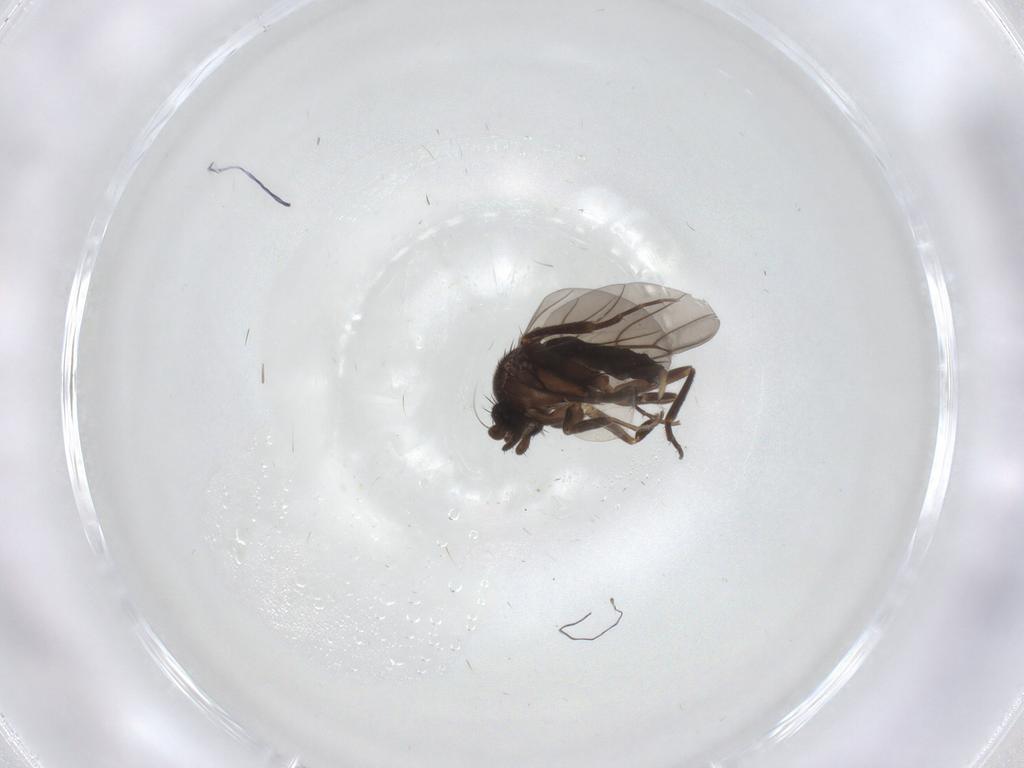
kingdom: Animalia
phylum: Arthropoda
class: Insecta
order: Diptera
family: Phoridae
